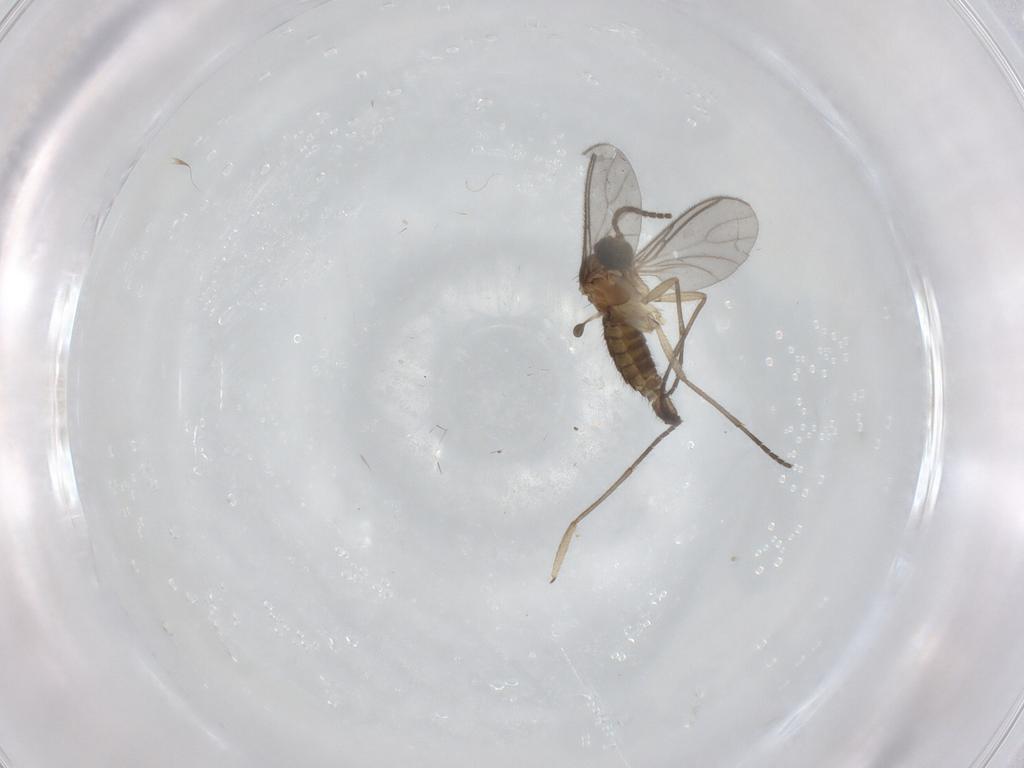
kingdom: Animalia
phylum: Arthropoda
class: Insecta
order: Diptera
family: Sciaridae
